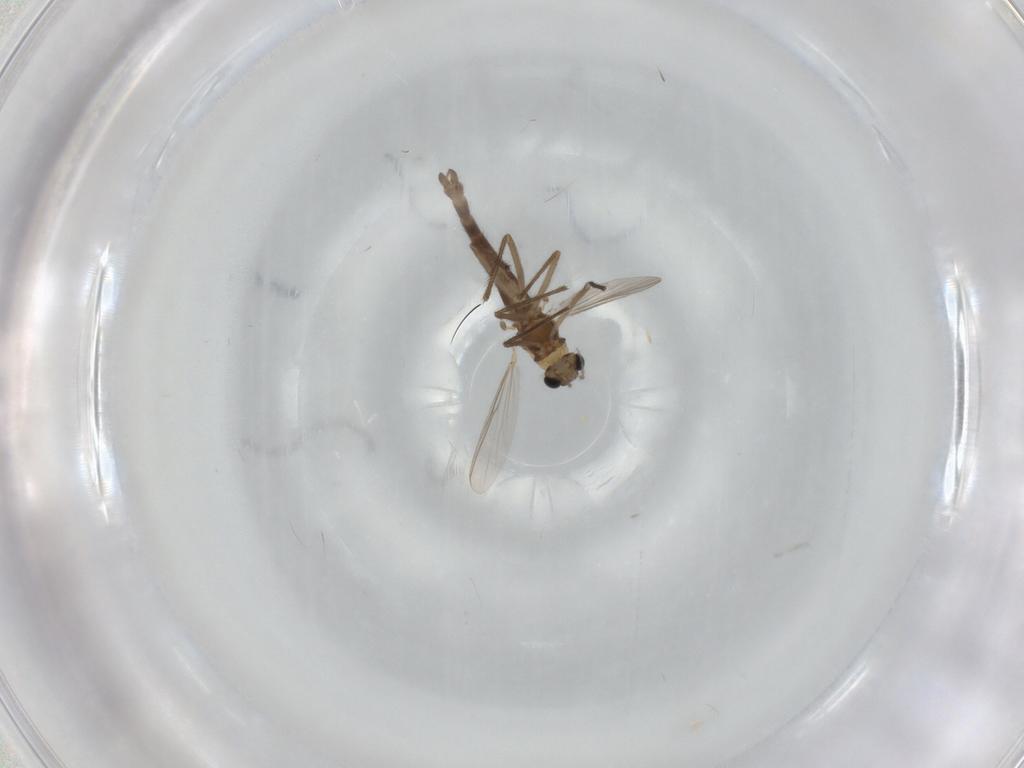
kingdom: Animalia
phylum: Arthropoda
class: Insecta
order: Diptera
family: Chironomidae
